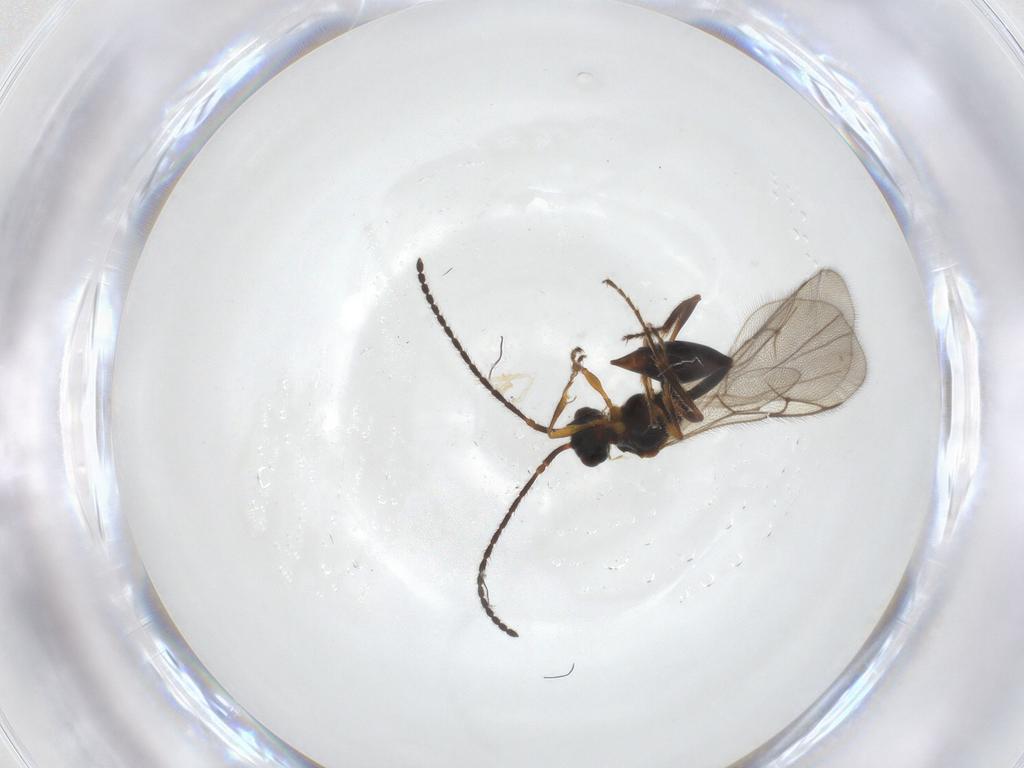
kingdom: Animalia
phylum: Arthropoda
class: Insecta
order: Hymenoptera
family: Diapriidae
